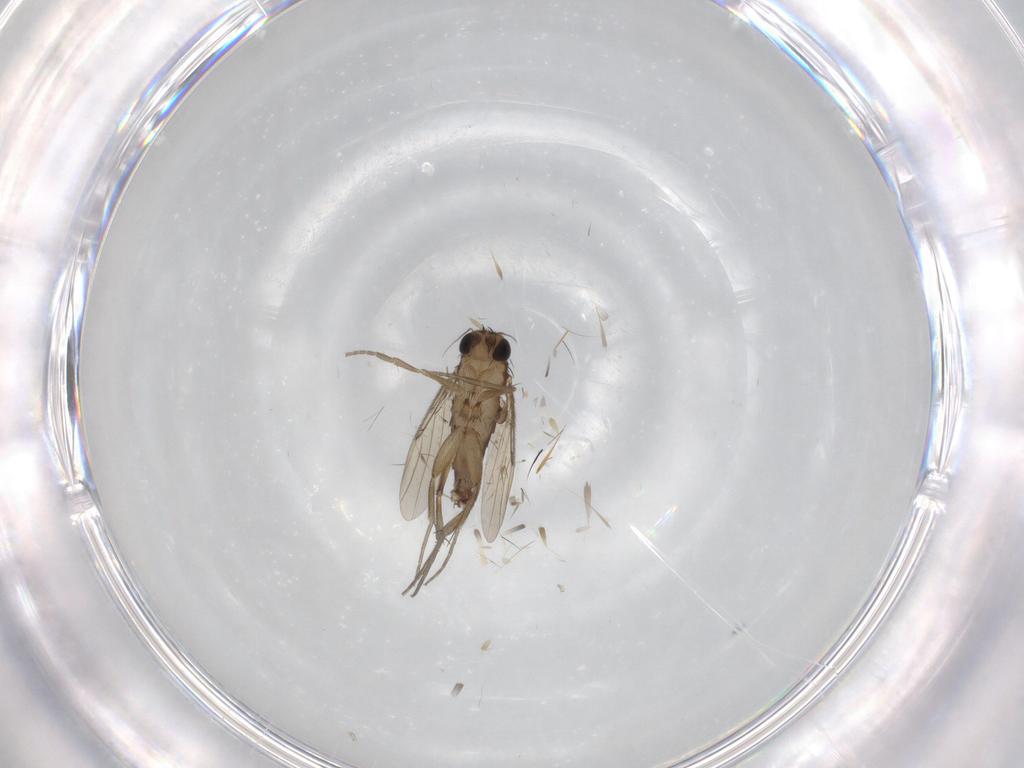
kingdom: Animalia
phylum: Arthropoda
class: Insecta
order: Diptera
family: Phoridae
